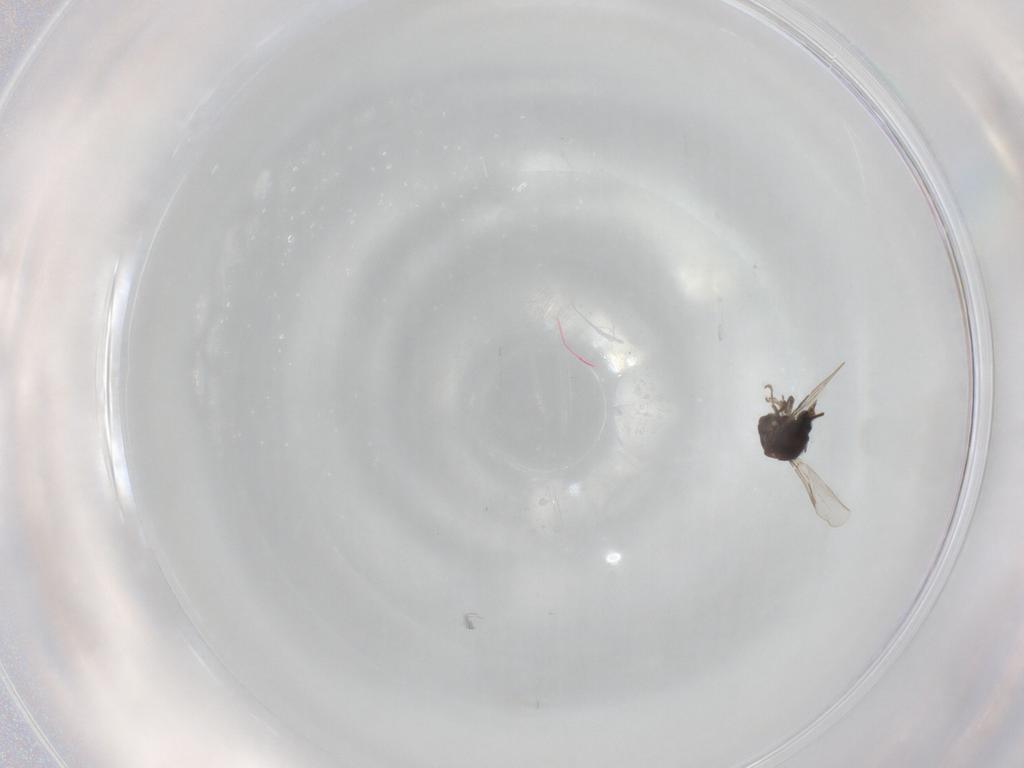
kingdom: Animalia
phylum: Arthropoda
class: Insecta
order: Diptera
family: Ceratopogonidae
